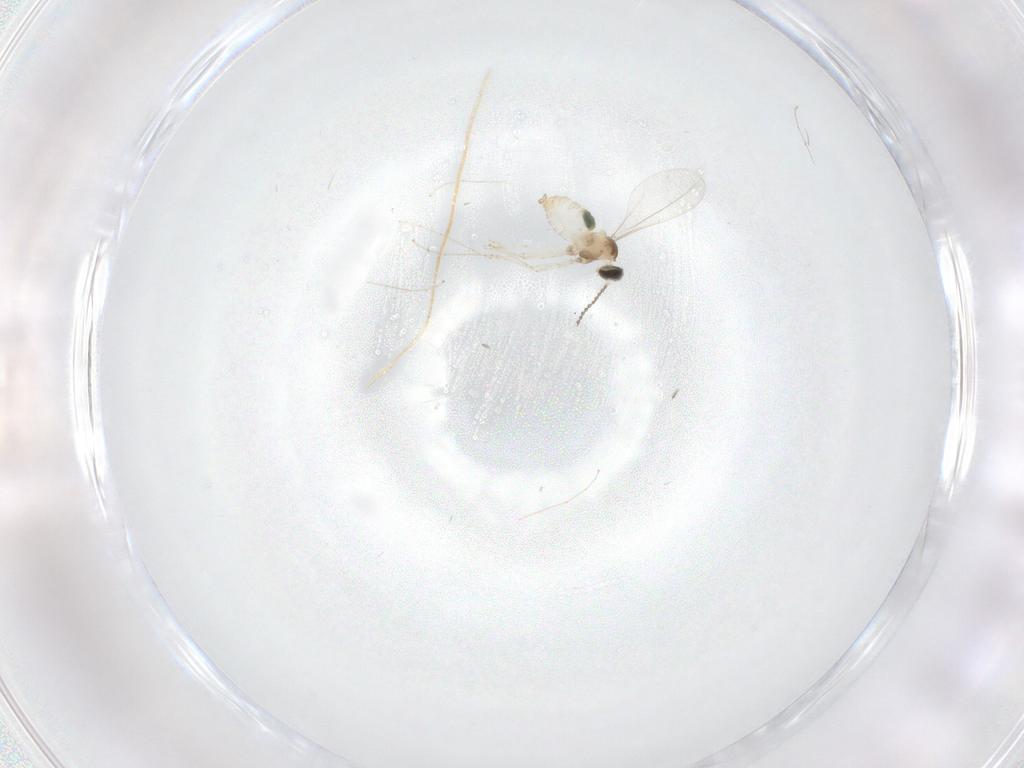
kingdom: Animalia
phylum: Arthropoda
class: Insecta
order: Diptera
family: Cecidomyiidae
